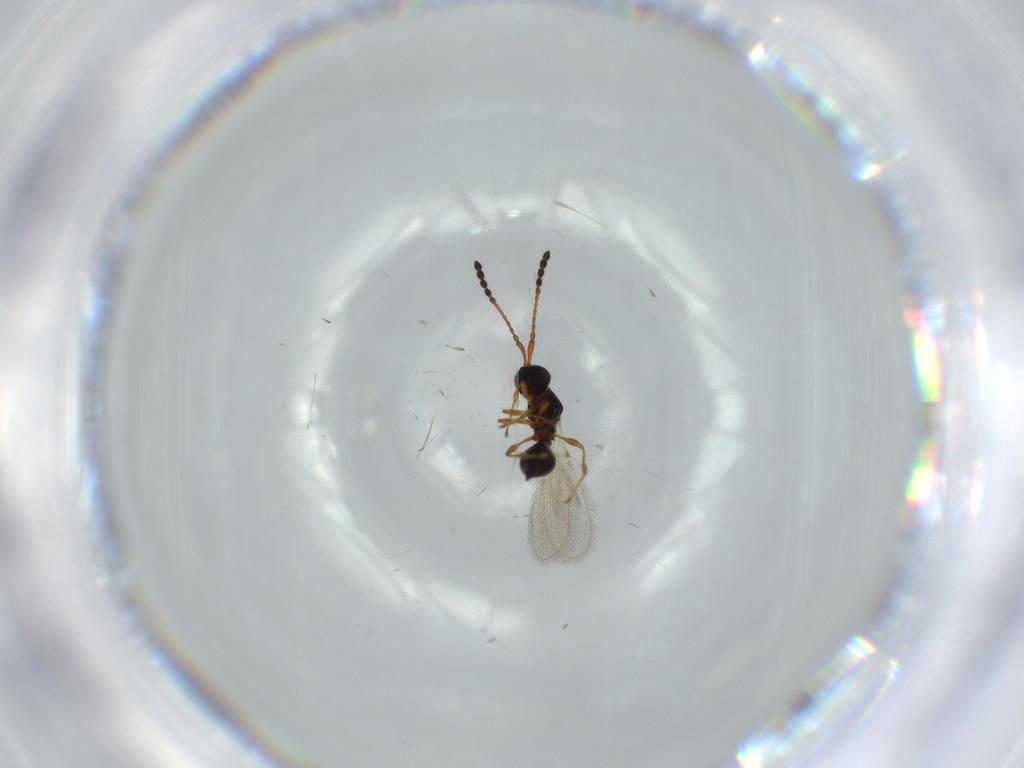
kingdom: Animalia
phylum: Arthropoda
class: Insecta
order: Hymenoptera
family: Diapriidae
